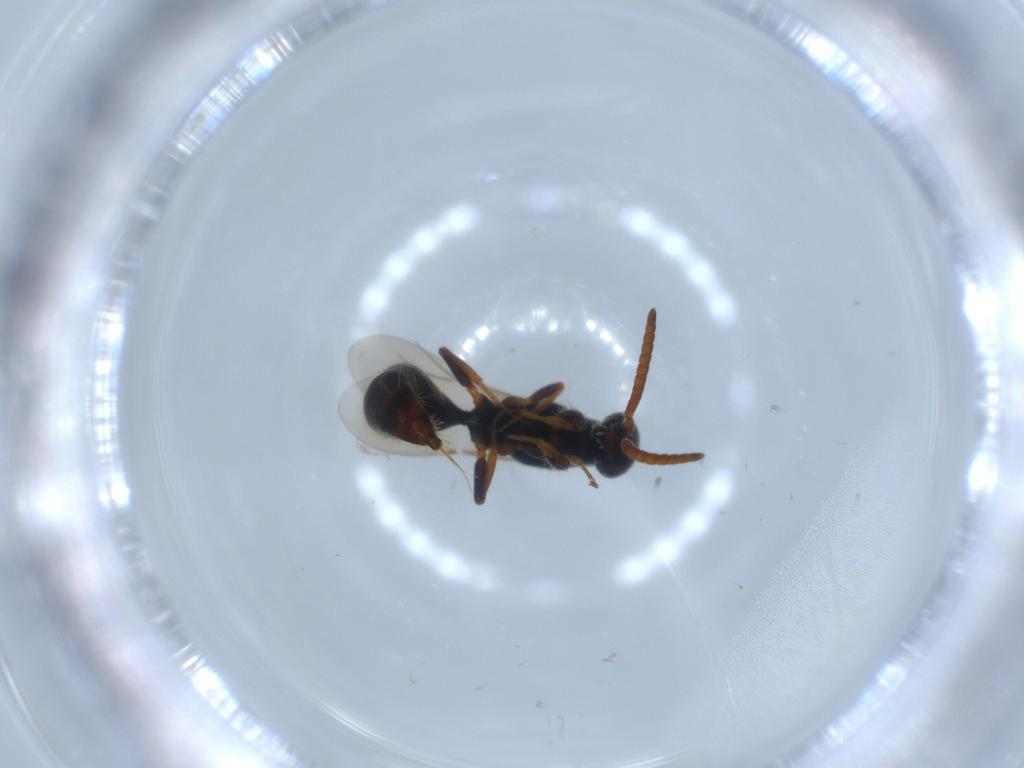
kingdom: Animalia
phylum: Arthropoda
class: Insecta
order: Hymenoptera
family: Bethylidae
